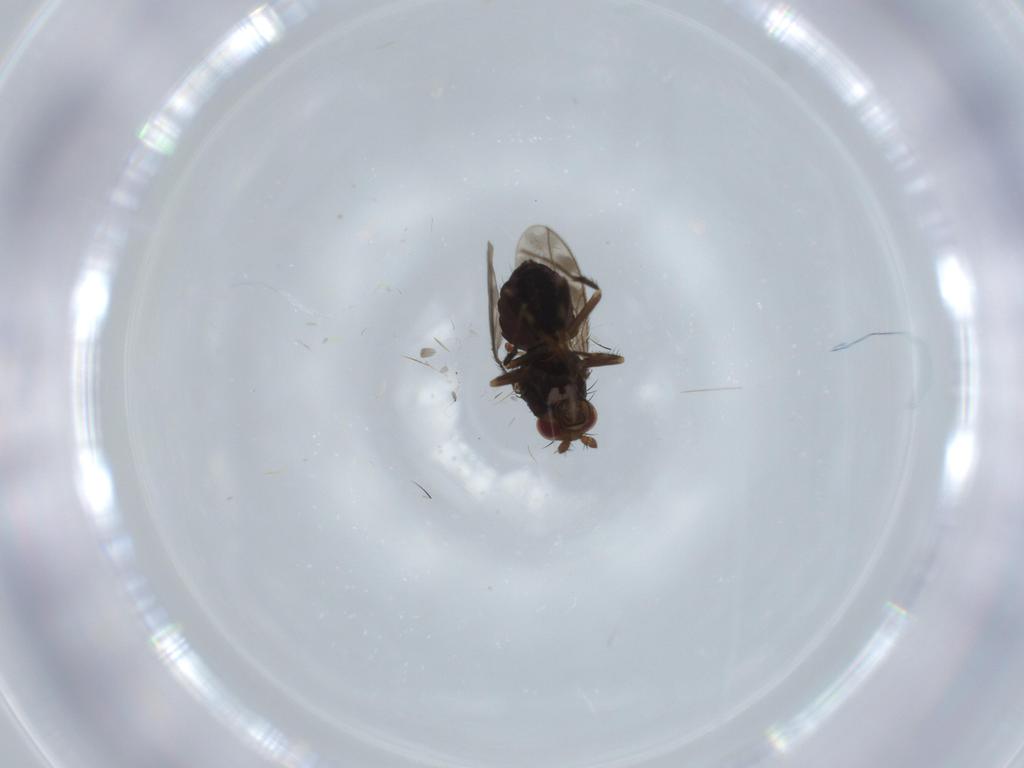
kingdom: Animalia
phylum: Arthropoda
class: Insecta
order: Diptera
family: Sphaeroceridae
